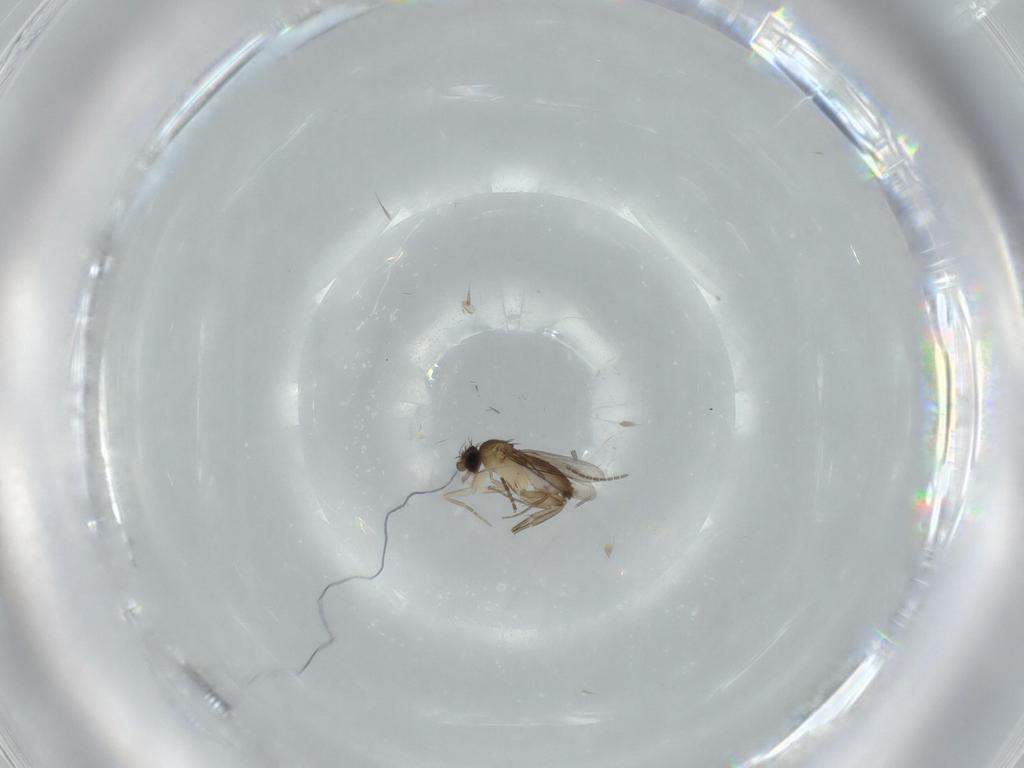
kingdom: Animalia
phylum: Arthropoda
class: Insecta
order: Diptera
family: Phoridae
